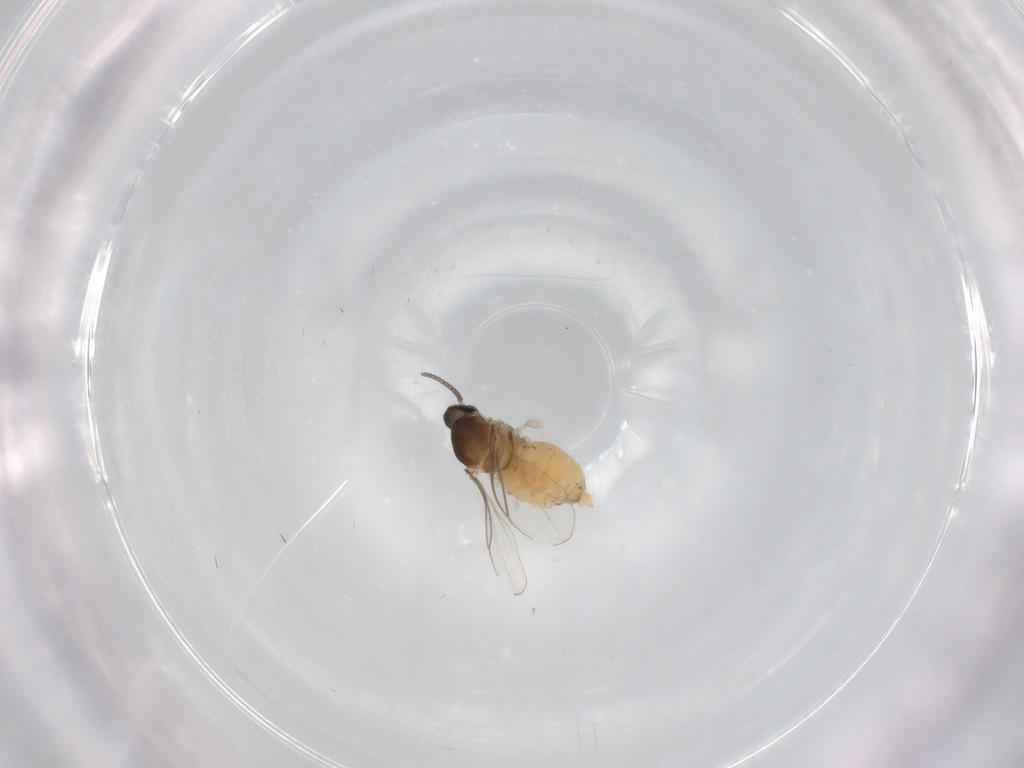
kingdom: Animalia
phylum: Arthropoda
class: Insecta
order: Diptera
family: Cecidomyiidae
